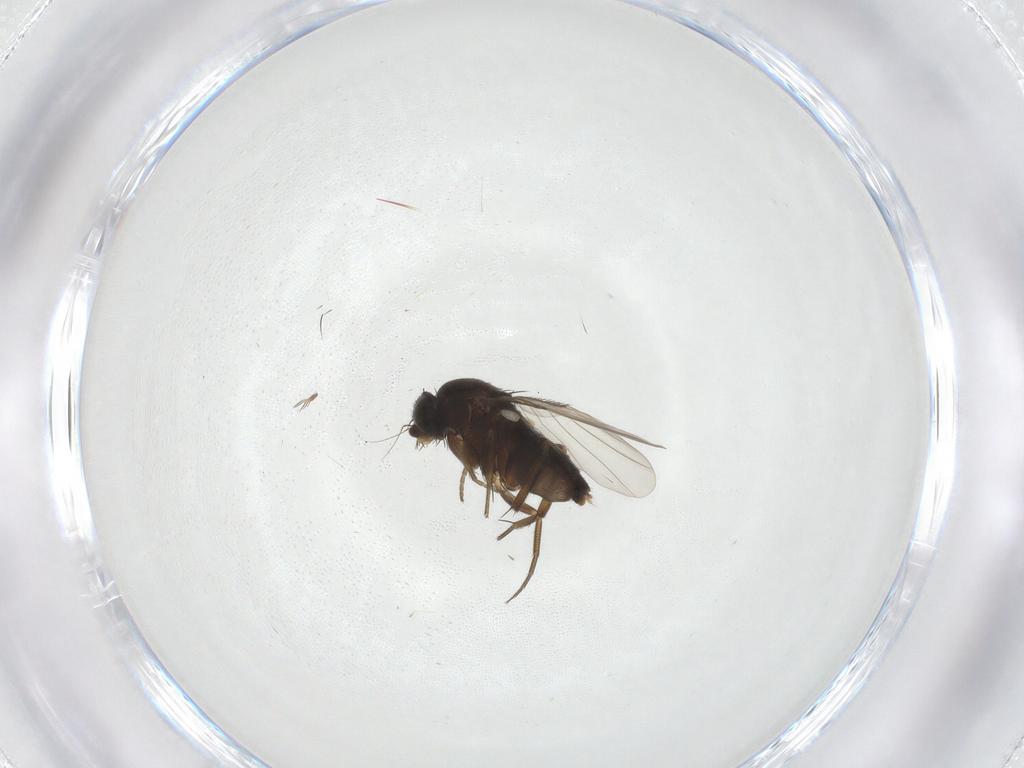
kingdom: Animalia
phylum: Arthropoda
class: Insecta
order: Diptera
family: Phoridae
